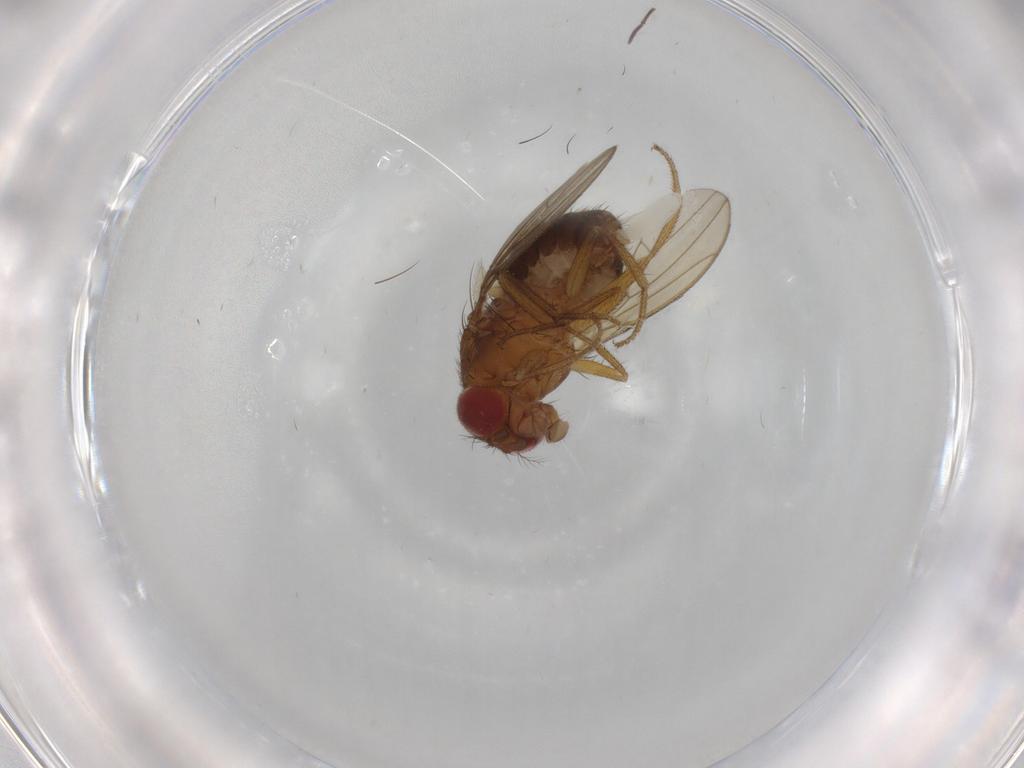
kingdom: Animalia
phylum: Arthropoda
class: Insecta
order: Diptera
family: Drosophilidae
